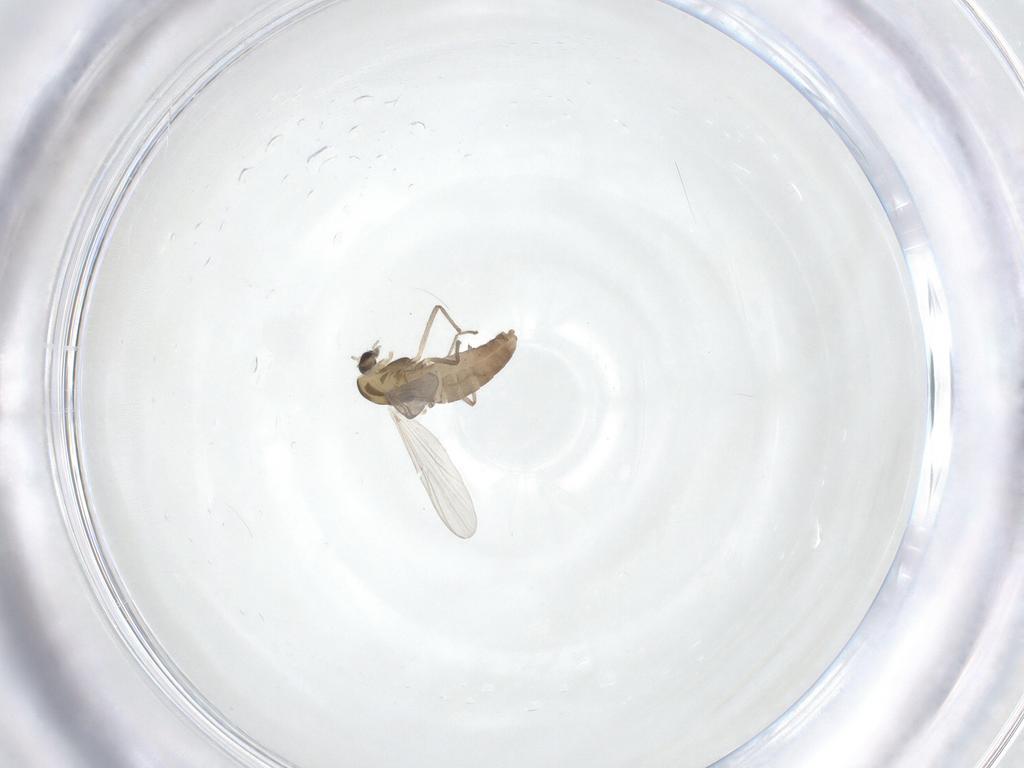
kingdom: Animalia
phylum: Arthropoda
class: Insecta
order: Diptera
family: Chironomidae
